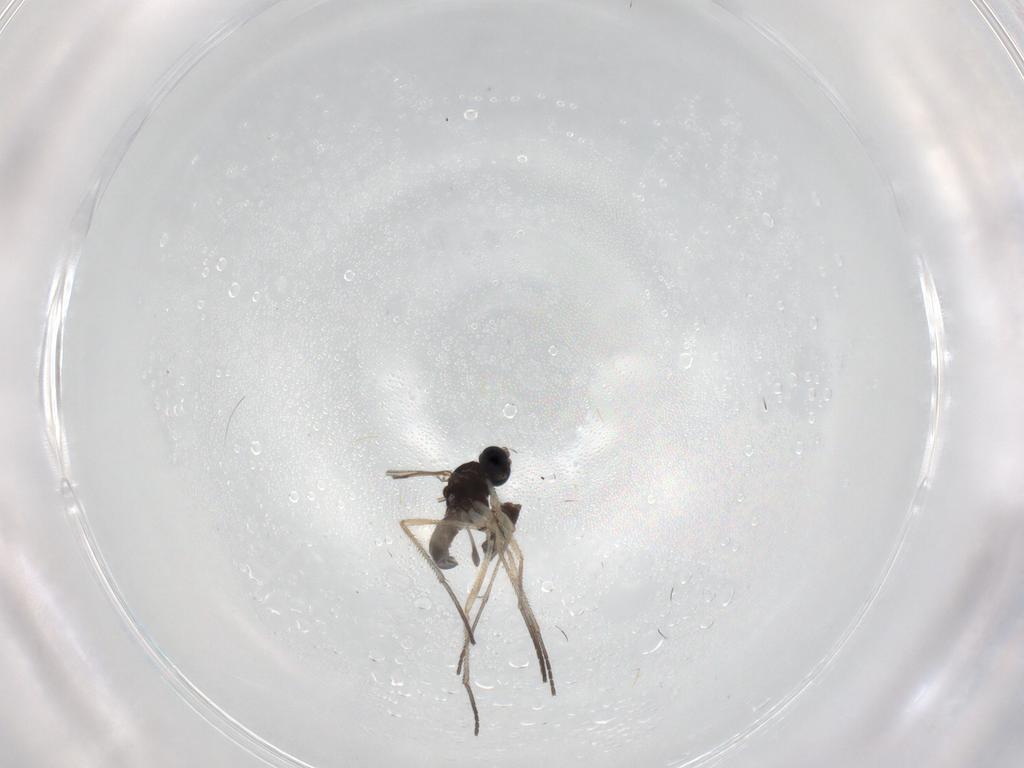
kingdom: Animalia
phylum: Arthropoda
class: Insecta
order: Diptera
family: Sciaridae
